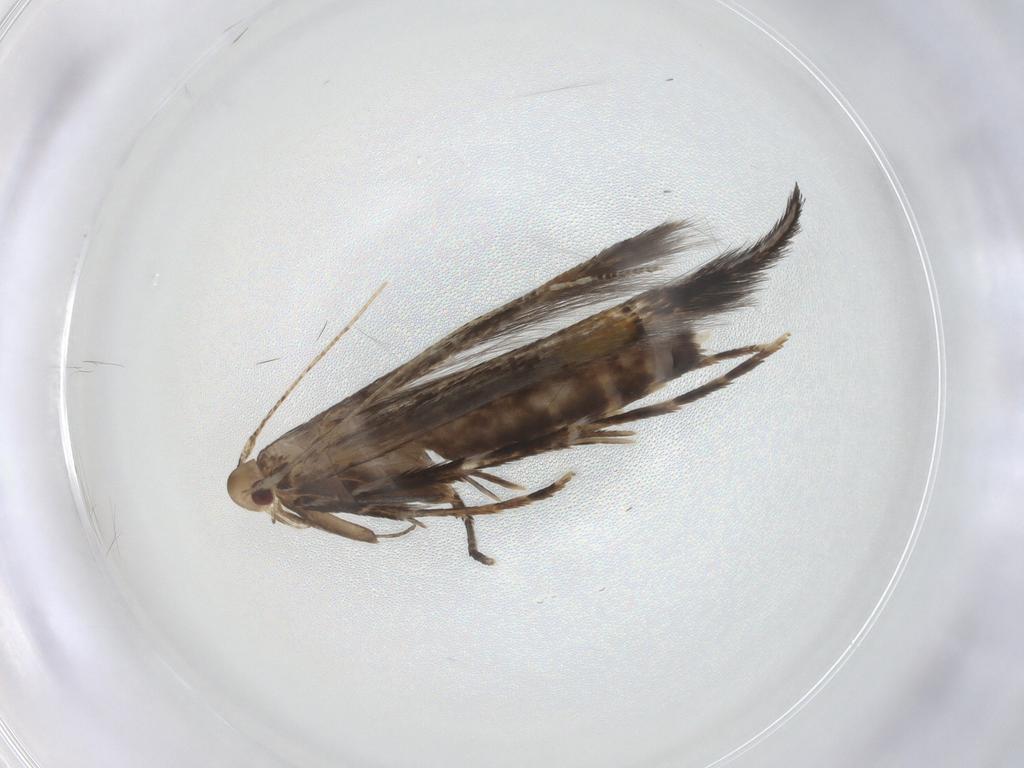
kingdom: Animalia
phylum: Arthropoda
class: Insecta
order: Lepidoptera
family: Cosmopterigidae
